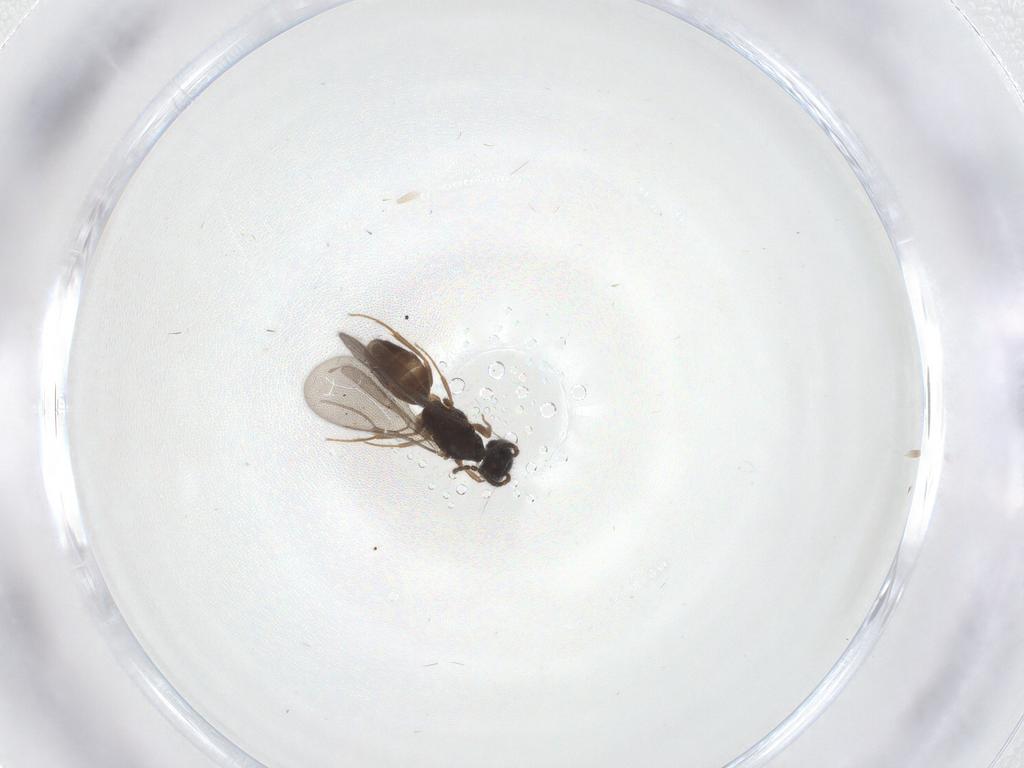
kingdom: Animalia
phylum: Arthropoda
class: Insecta
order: Hymenoptera
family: Bethylidae
